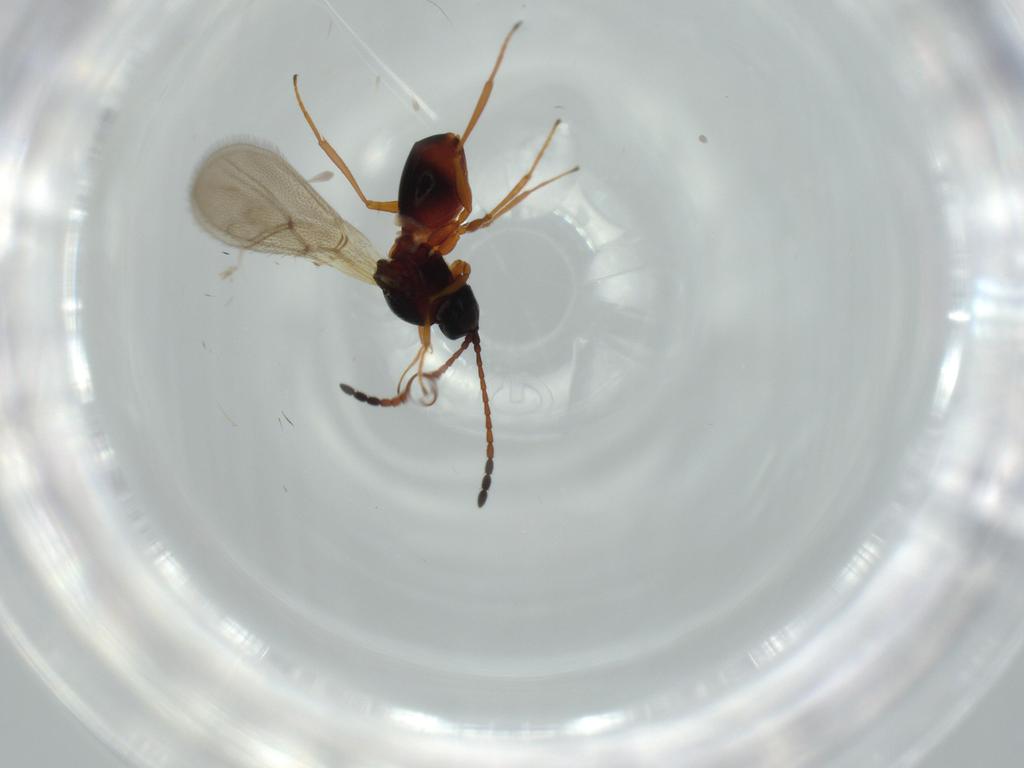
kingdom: Animalia
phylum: Arthropoda
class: Insecta
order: Hymenoptera
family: Figitidae
